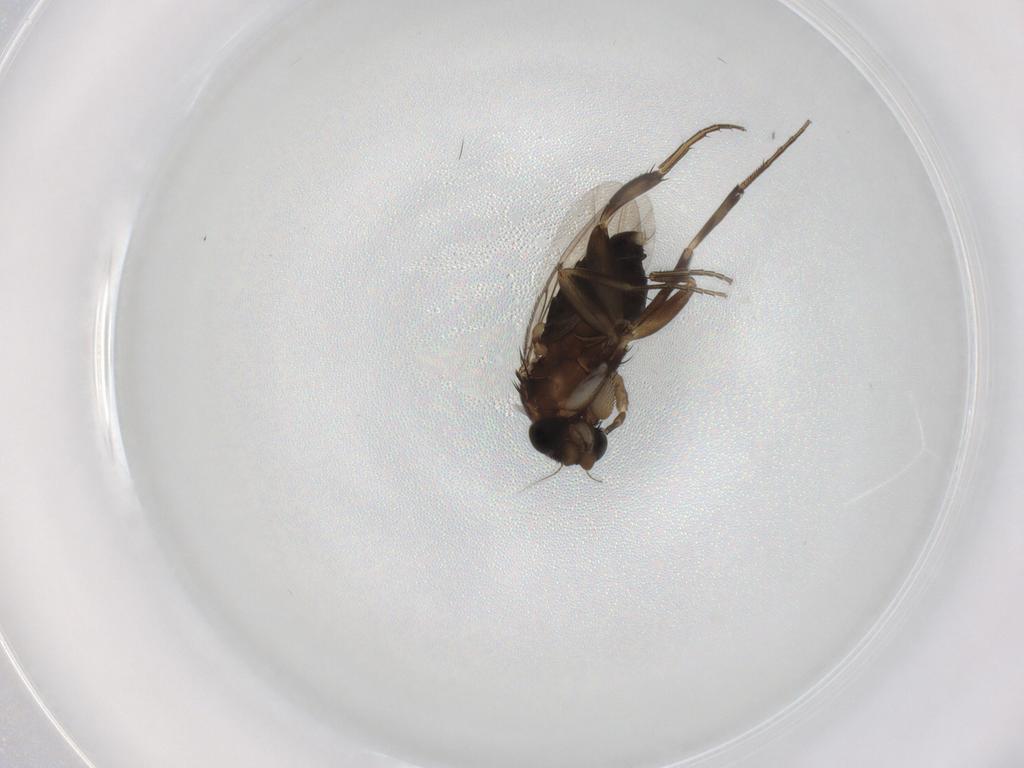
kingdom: Animalia
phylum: Arthropoda
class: Insecta
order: Diptera
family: Phoridae
